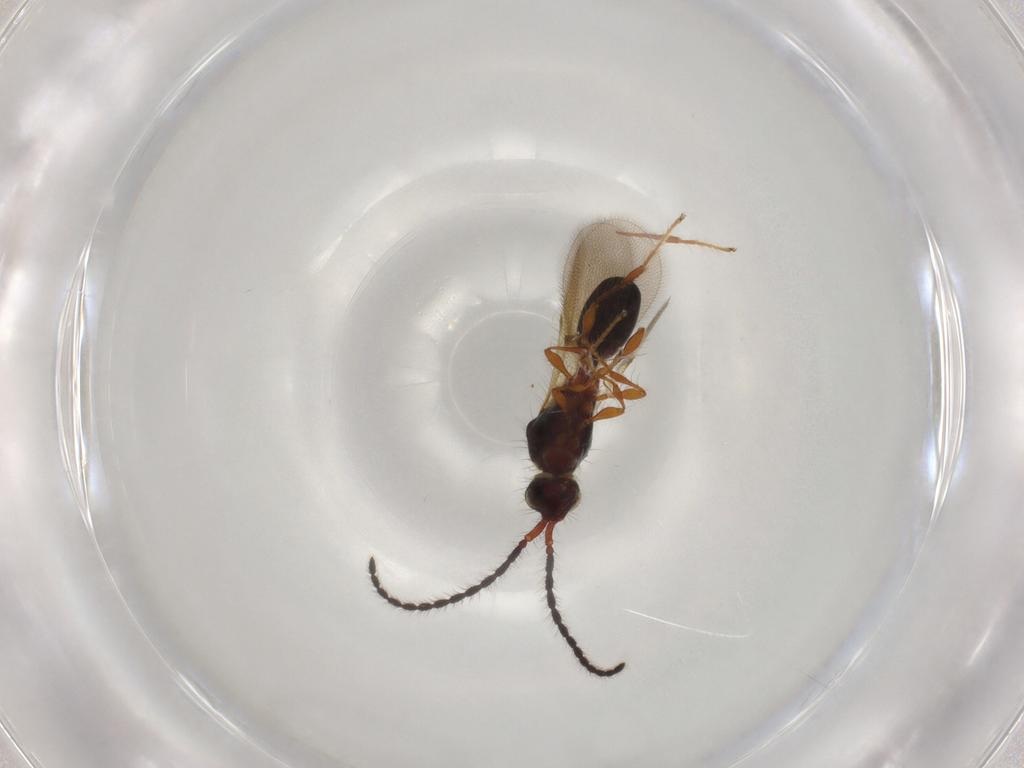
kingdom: Animalia
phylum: Arthropoda
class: Insecta
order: Hymenoptera
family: Diapriidae
